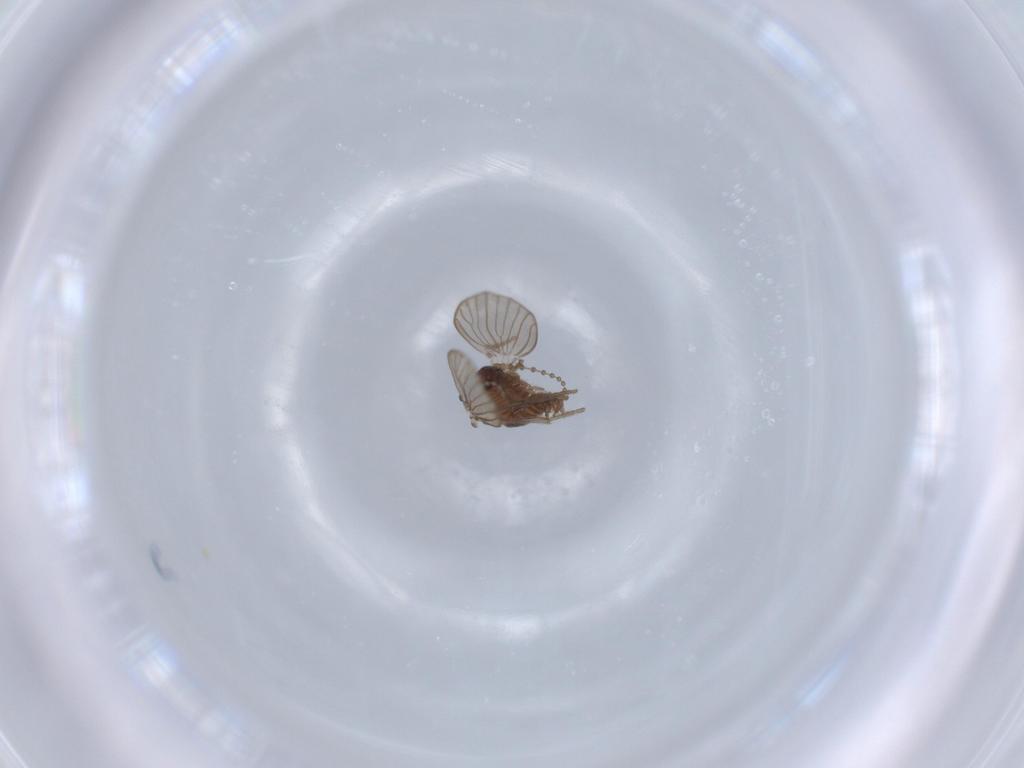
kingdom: Animalia
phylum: Arthropoda
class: Insecta
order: Diptera
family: Psychodidae
